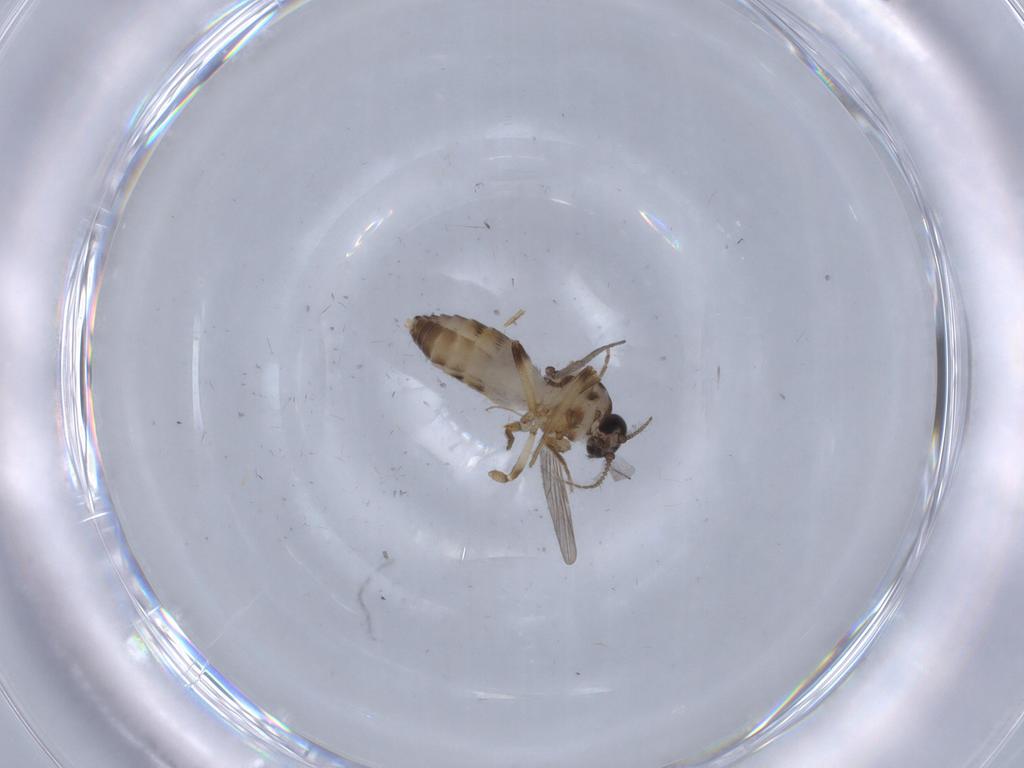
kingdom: Animalia
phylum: Arthropoda
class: Insecta
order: Diptera
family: Ceratopogonidae
